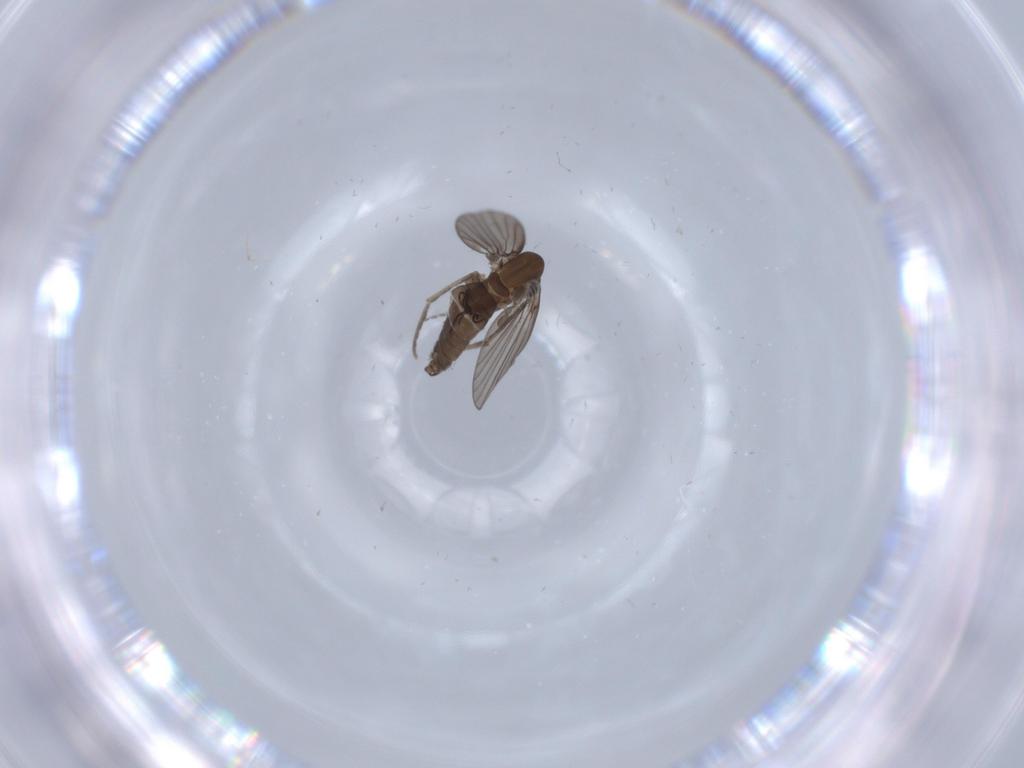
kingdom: Animalia
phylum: Arthropoda
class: Insecta
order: Diptera
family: Psychodidae
